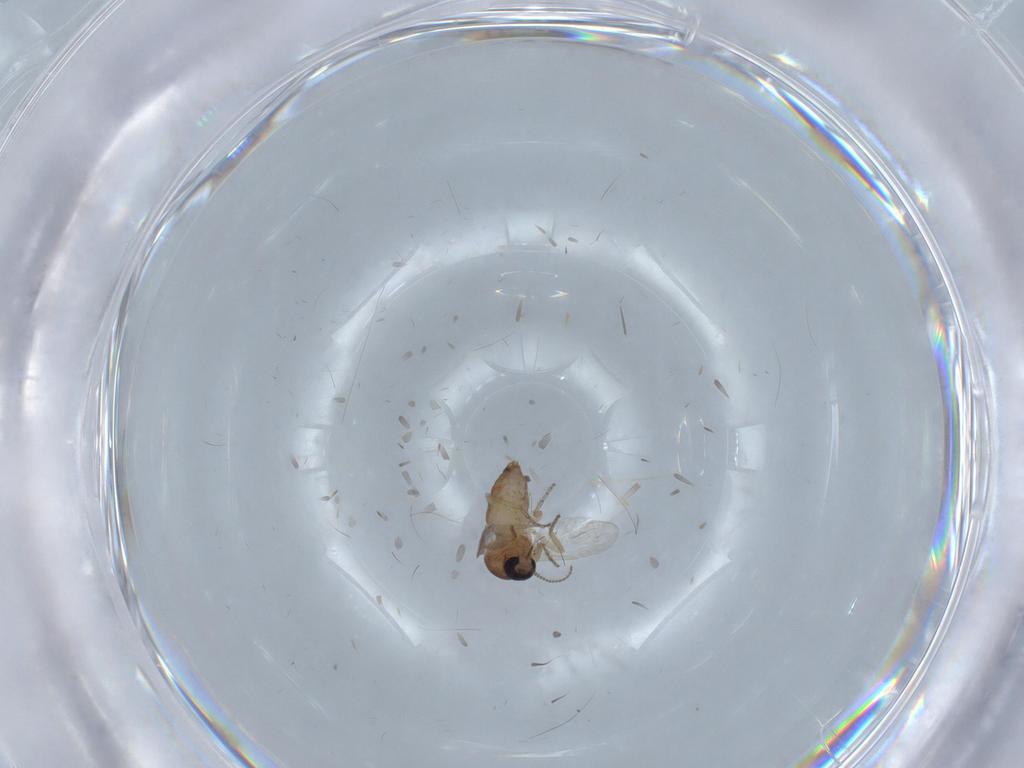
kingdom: Animalia
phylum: Arthropoda
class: Insecta
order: Diptera
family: Ceratopogonidae
